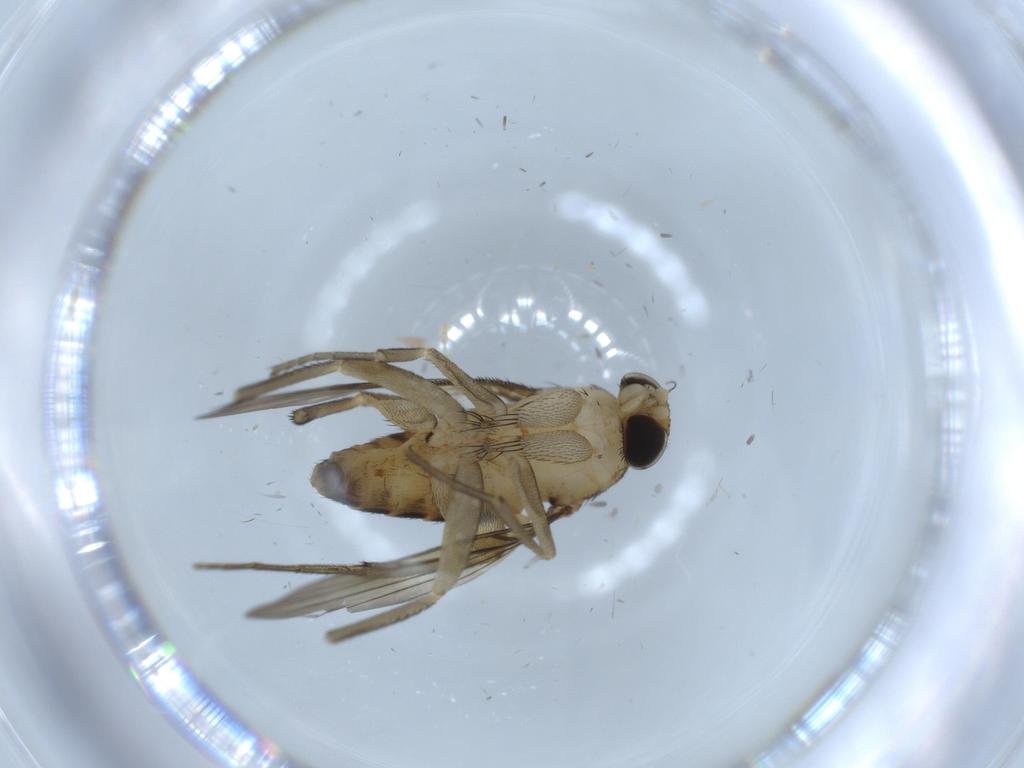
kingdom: Animalia
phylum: Arthropoda
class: Insecta
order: Diptera
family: Psychodidae
